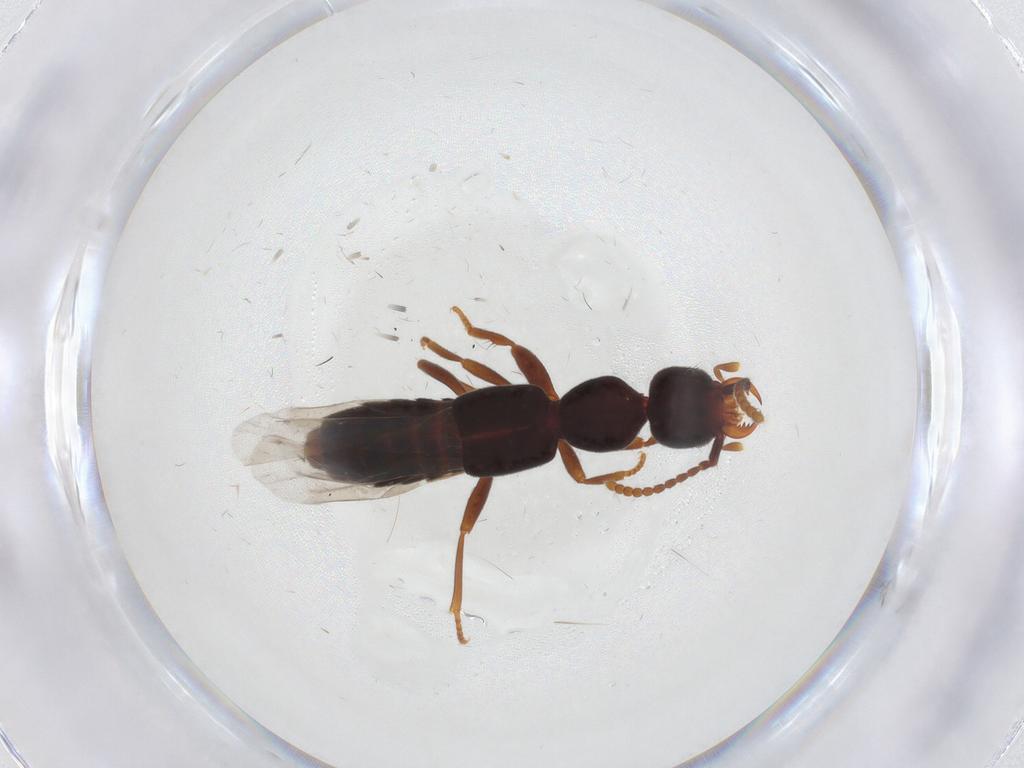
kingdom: Animalia
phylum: Arthropoda
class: Insecta
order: Coleoptera
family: Staphylinidae
